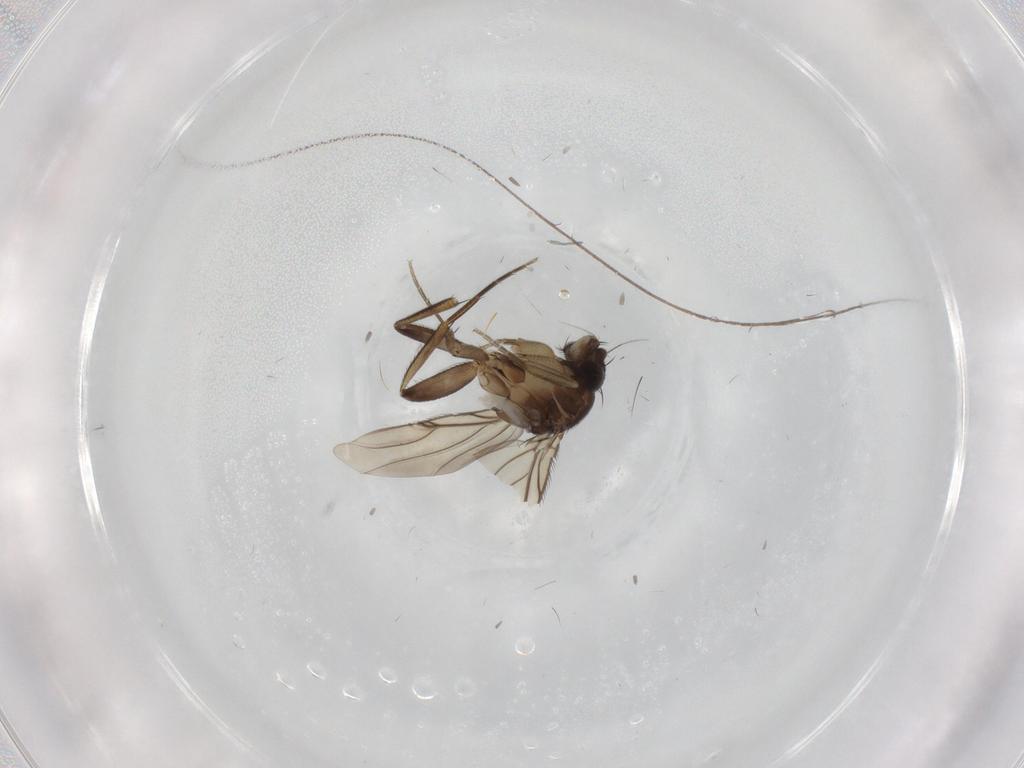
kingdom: Animalia
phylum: Arthropoda
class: Insecta
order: Diptera
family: Phoridae
